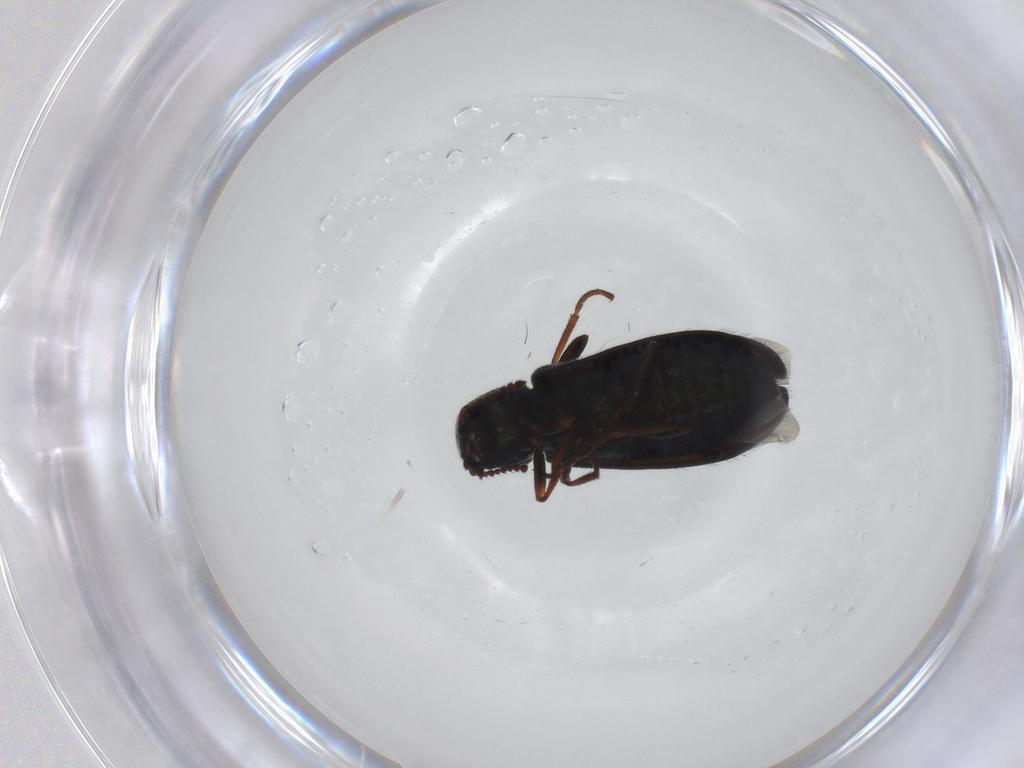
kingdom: Animalia
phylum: Arthropoda
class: Insecta
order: Coleoptera
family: Melyridae
